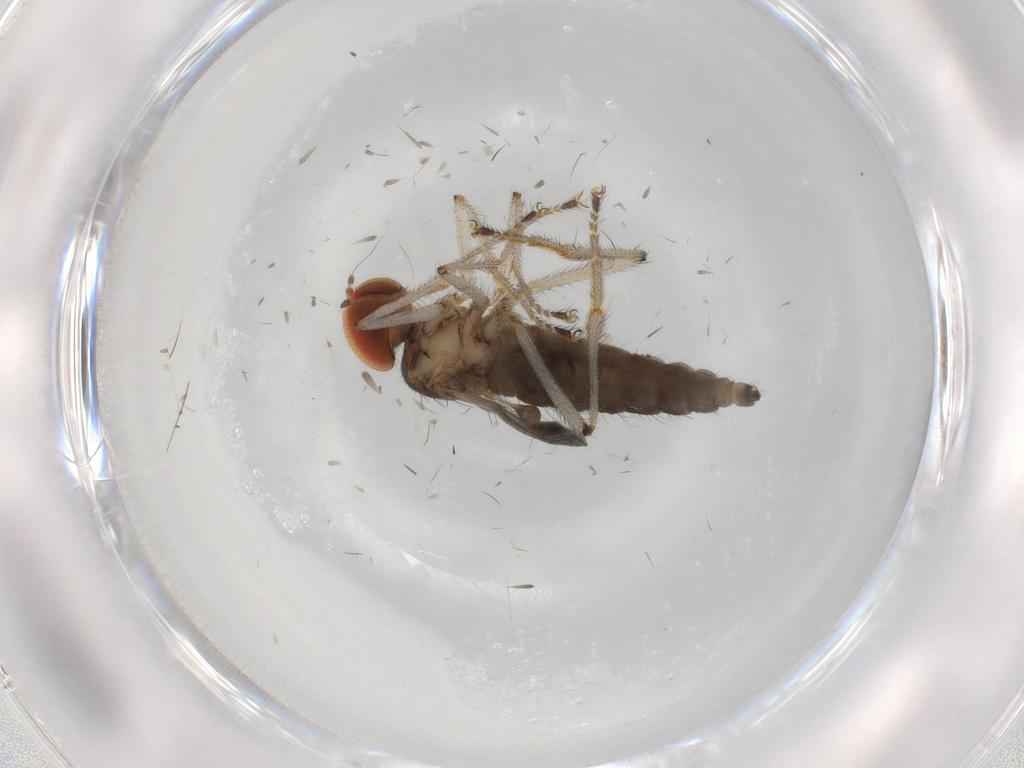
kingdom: Animalia
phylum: Arthropoda
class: Insecta
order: Diptera
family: Hybotidae
